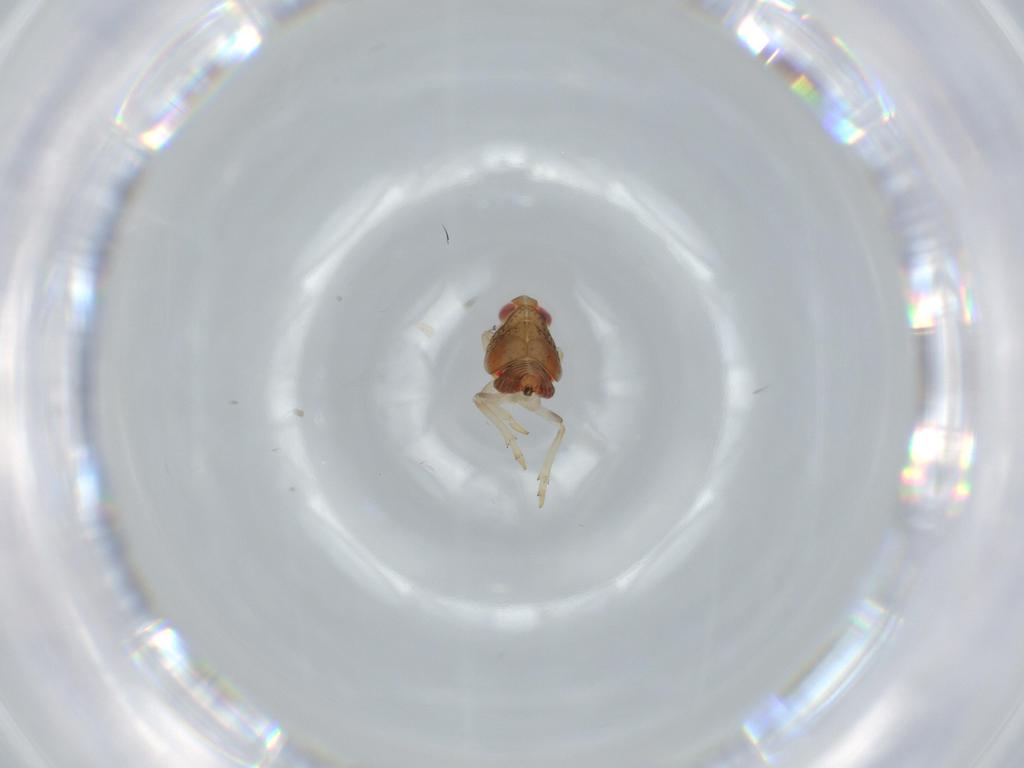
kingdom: Animalia
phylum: Arthropoda
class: Insecta
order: Hemiptera
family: Issidae
